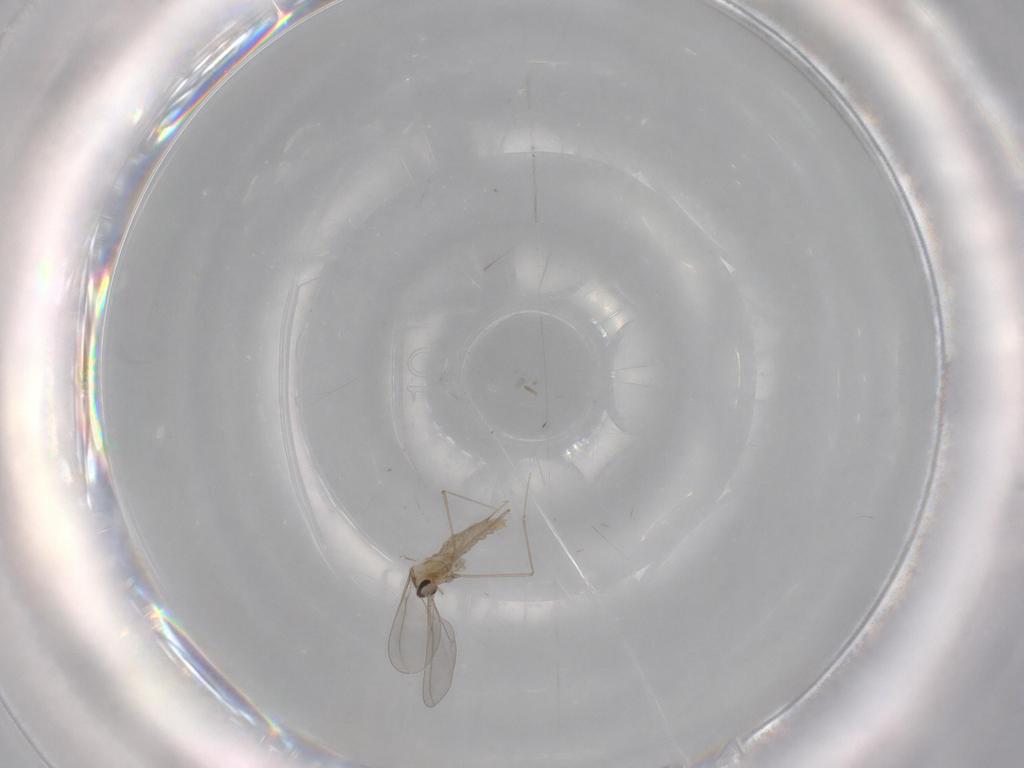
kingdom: Animalia
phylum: Arthropoda
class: Insecta
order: Diptera
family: Cecidomyiidae
